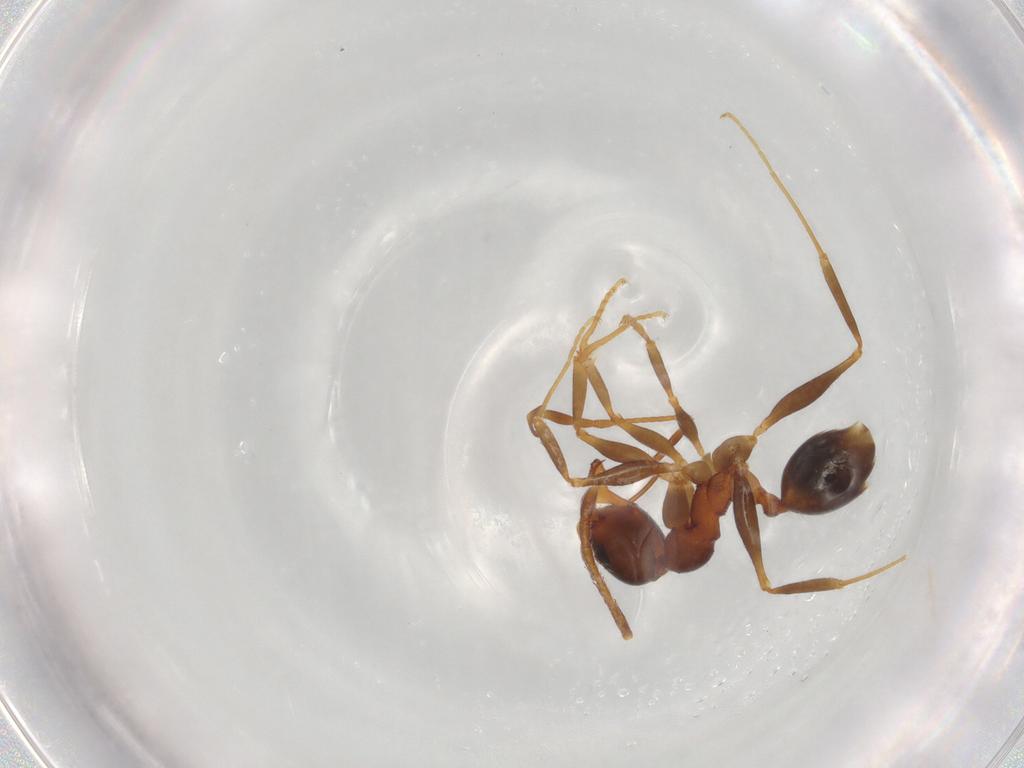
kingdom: Animalia
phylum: Arthropoda
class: Insecta
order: Hymenoptera
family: Formicidae
